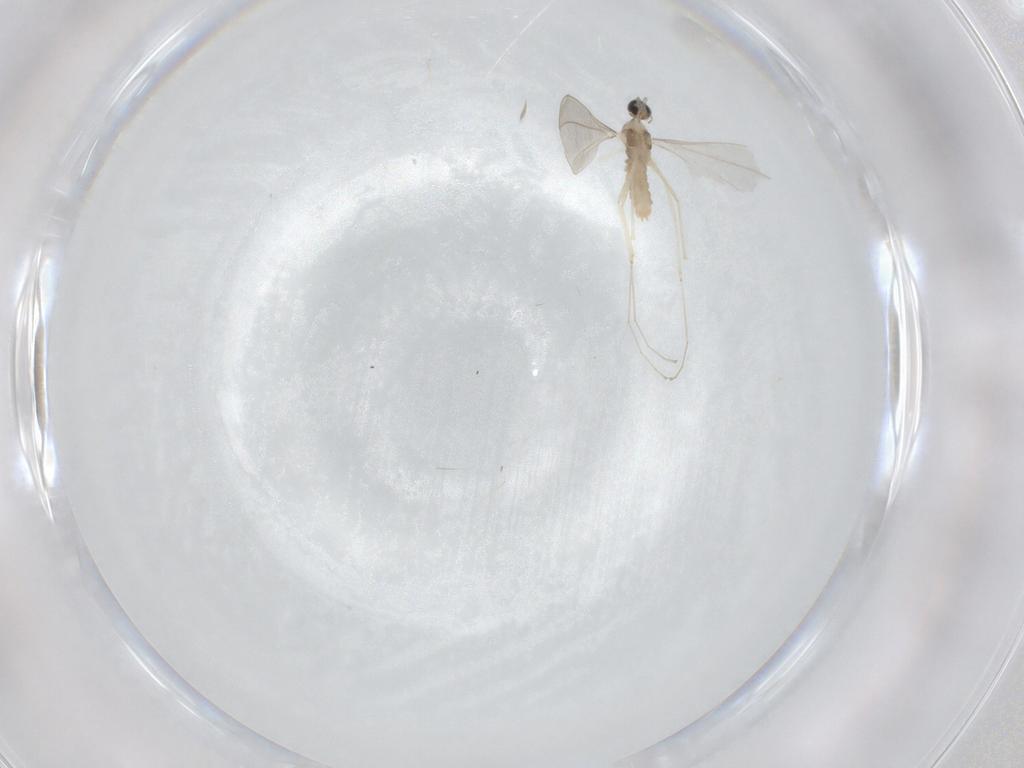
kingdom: Animalia
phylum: Arthropoda
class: Insecta
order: Diptera
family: Cecidomyiidae
